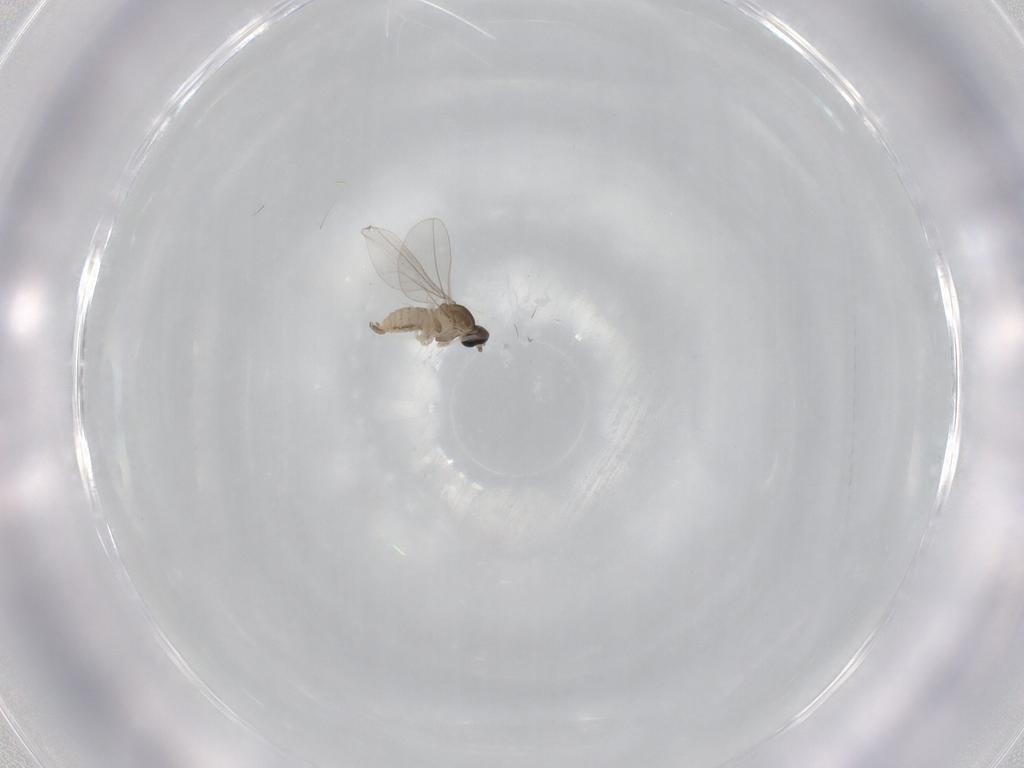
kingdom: Animalia
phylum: Arthropoda
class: Insecta
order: Diptera
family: Cecidomyiidae
